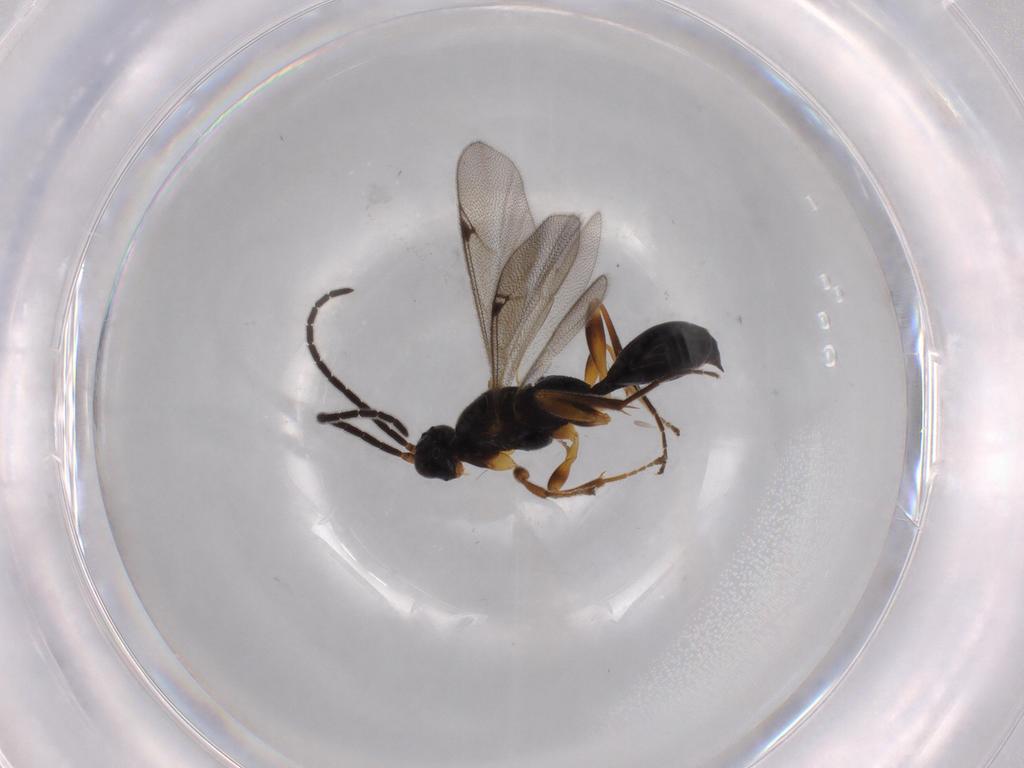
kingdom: Animalia
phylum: Arthropoda
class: Insecta
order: Hymenoptera
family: Proctotrupidae
